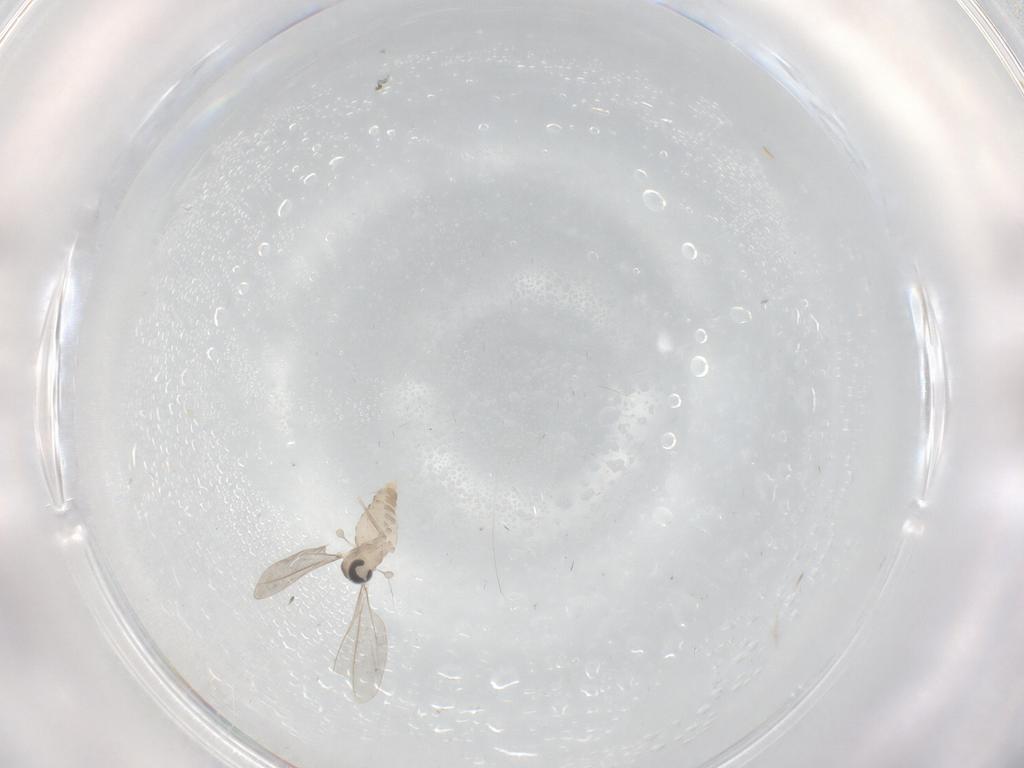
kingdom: Animalia
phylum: Arthropoda
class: Insecta
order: Diptera
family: Cecidomyiidae
